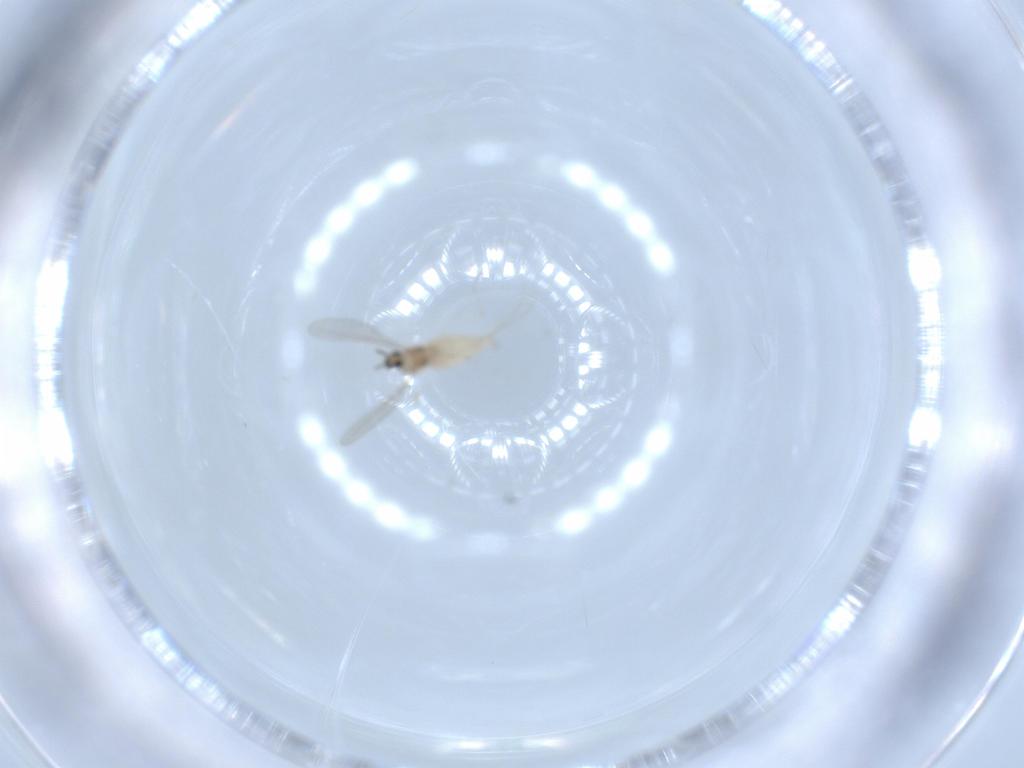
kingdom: Animalia
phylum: Arthropoda
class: Insecta
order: Diptera
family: Cecidomyiidae
